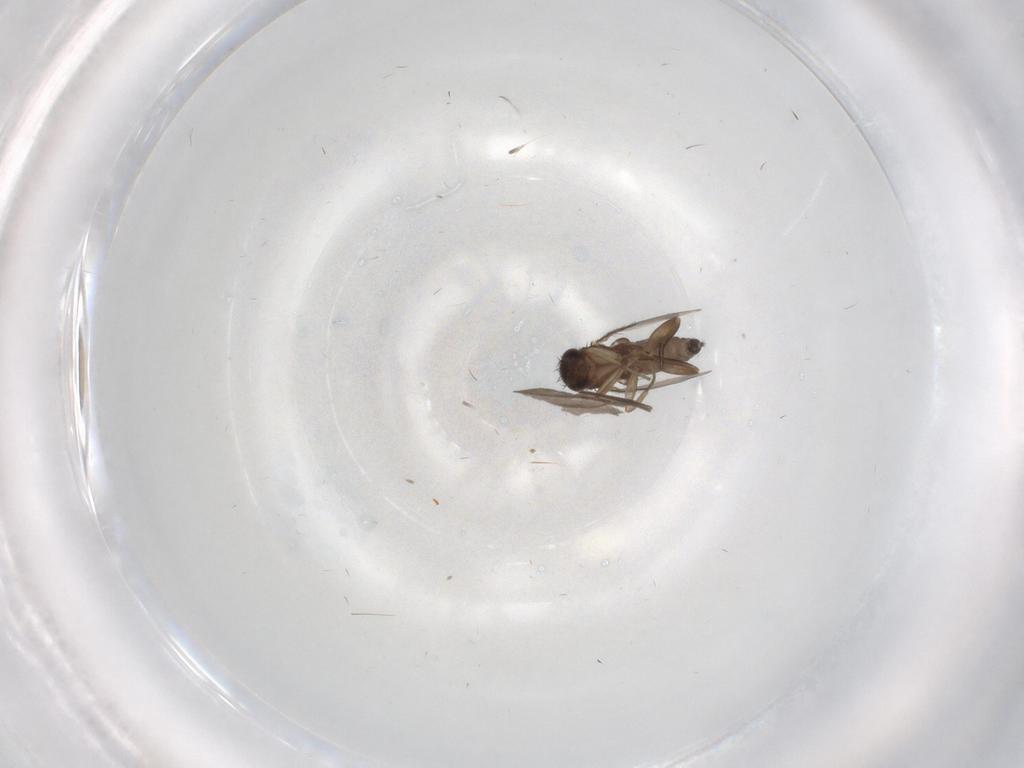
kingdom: Animalia
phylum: Arthropoda
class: Insecta
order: Diptera
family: Phoridae
